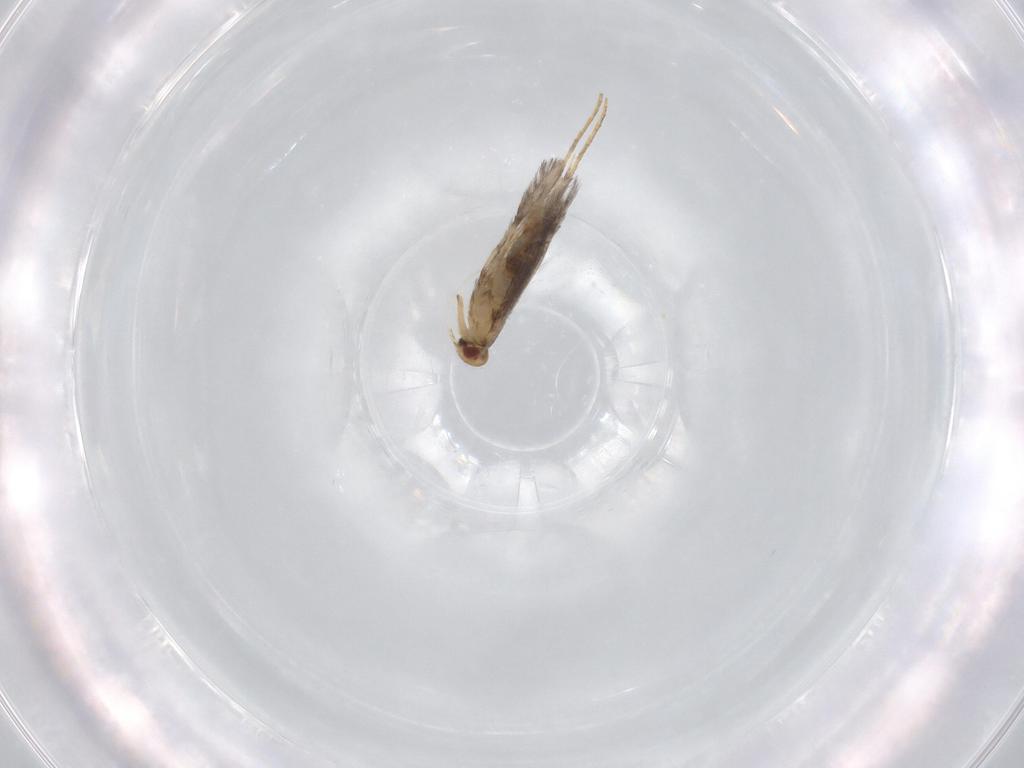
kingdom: Animalia
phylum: Arthropoda
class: Insecta
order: Lepidoptera
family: Gracillariidae
